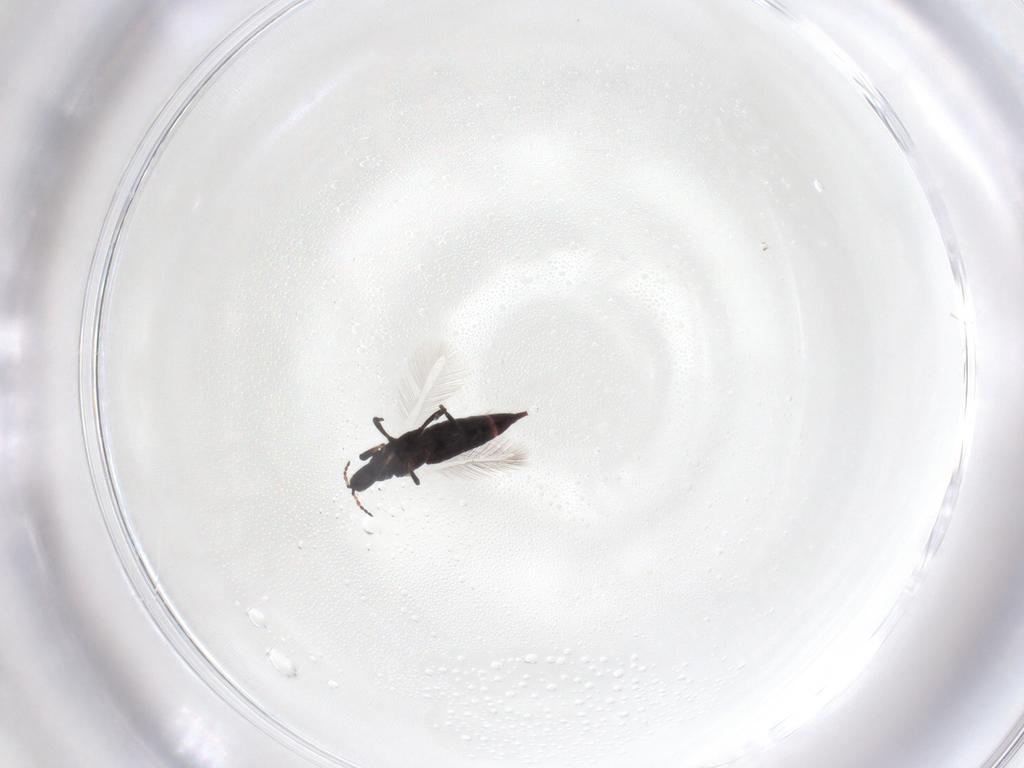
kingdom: Animalia
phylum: Arthropoda
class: Insecta
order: Thysanoptera
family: Phlaeothripidae
